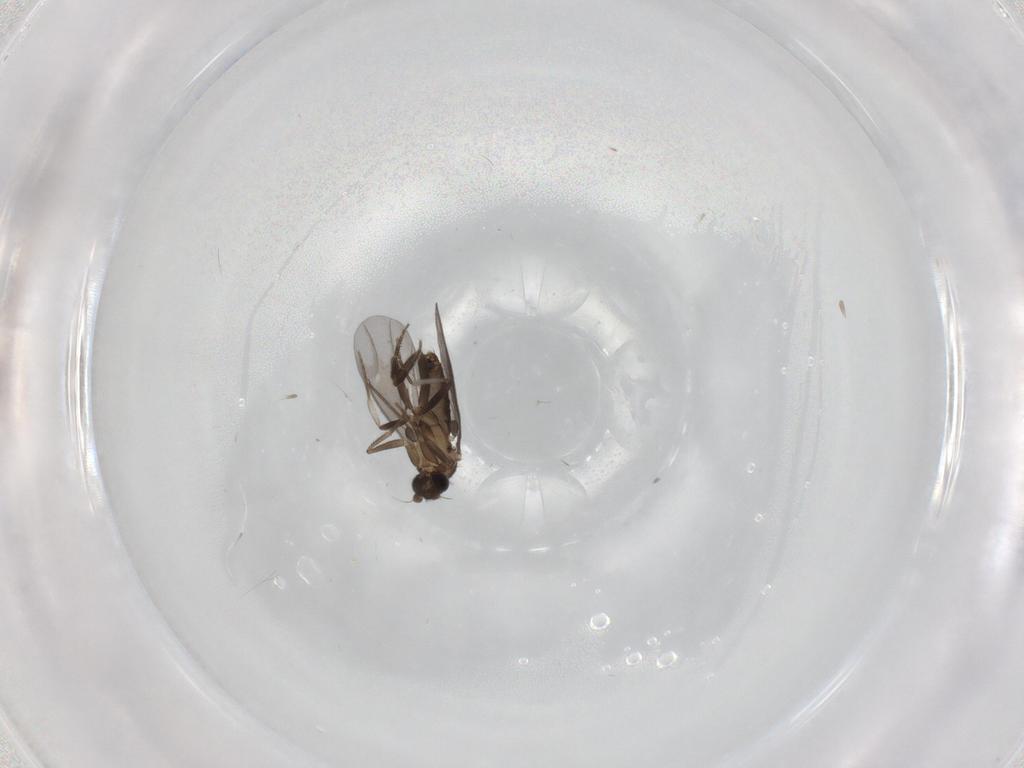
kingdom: Animalia
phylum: Arthropoda
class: Insecta
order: Diptera
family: Phoridae
